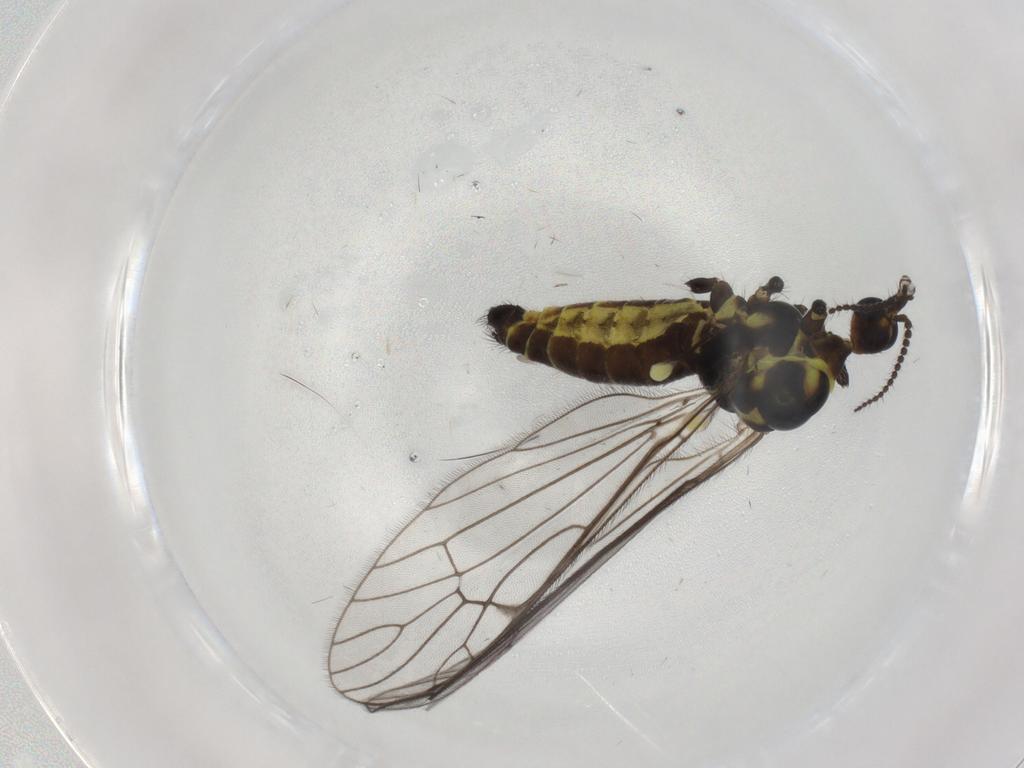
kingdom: Animalia
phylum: Arthropoda
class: Insecta
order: Diptera
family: Limoniidae
